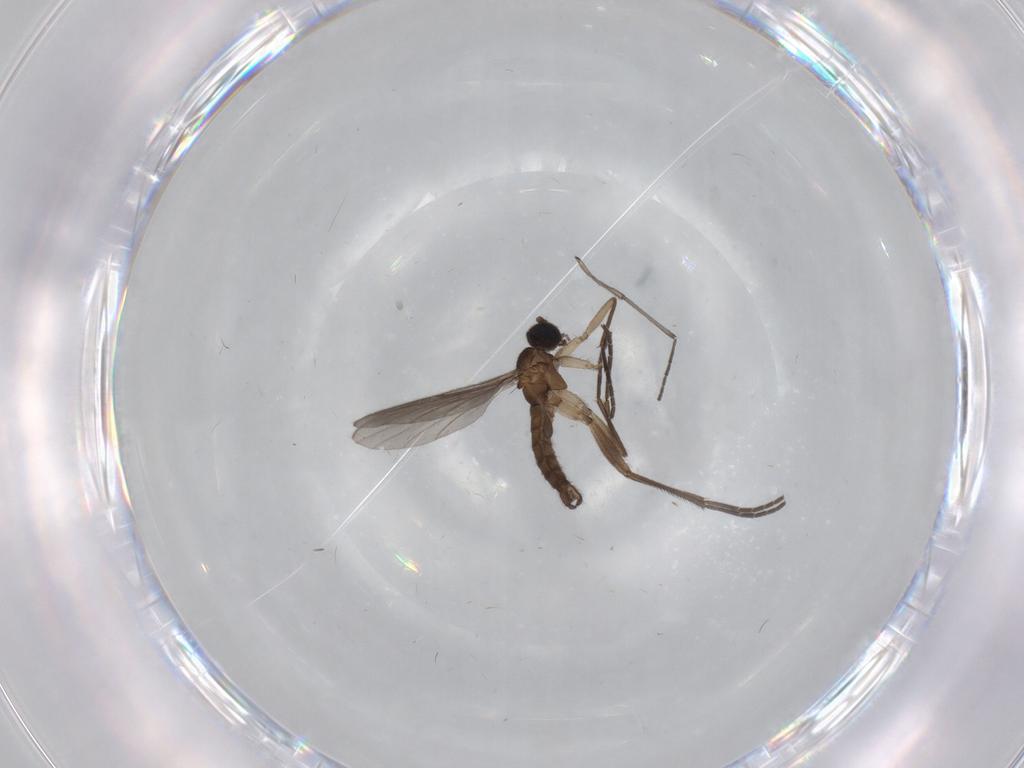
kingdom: Animalia
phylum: Arthropoda
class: Insecta
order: Diptera
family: Sciaridae
